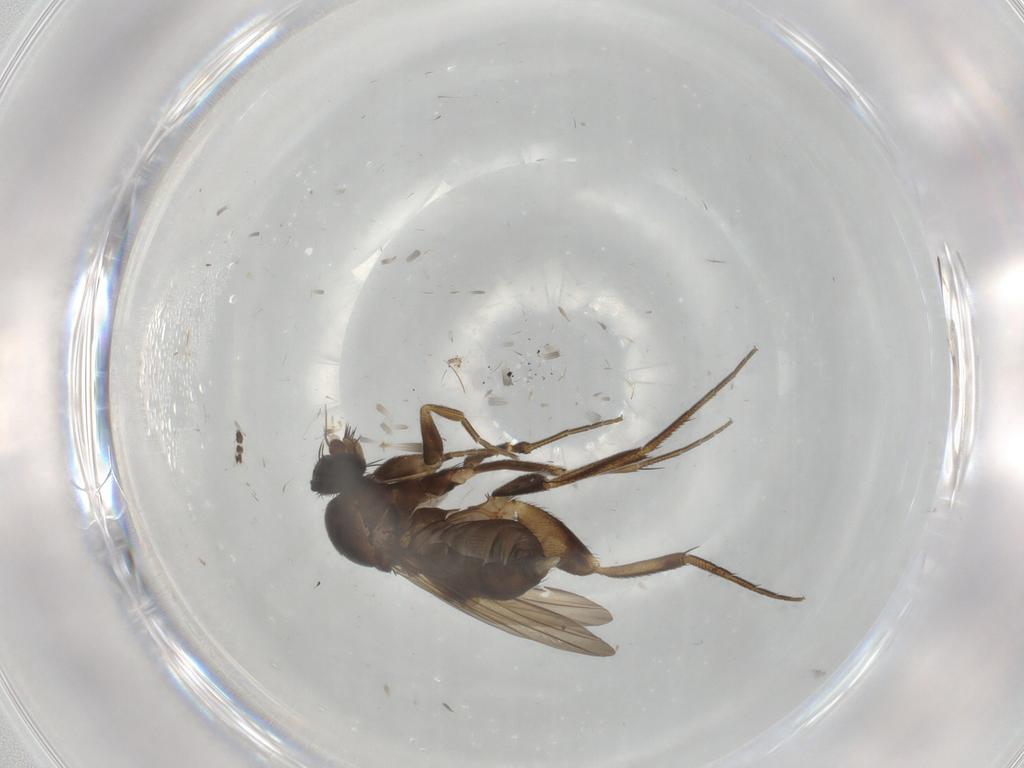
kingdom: Animalia
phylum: Arthropoda
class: Insecta
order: Diptera
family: Phoridae
